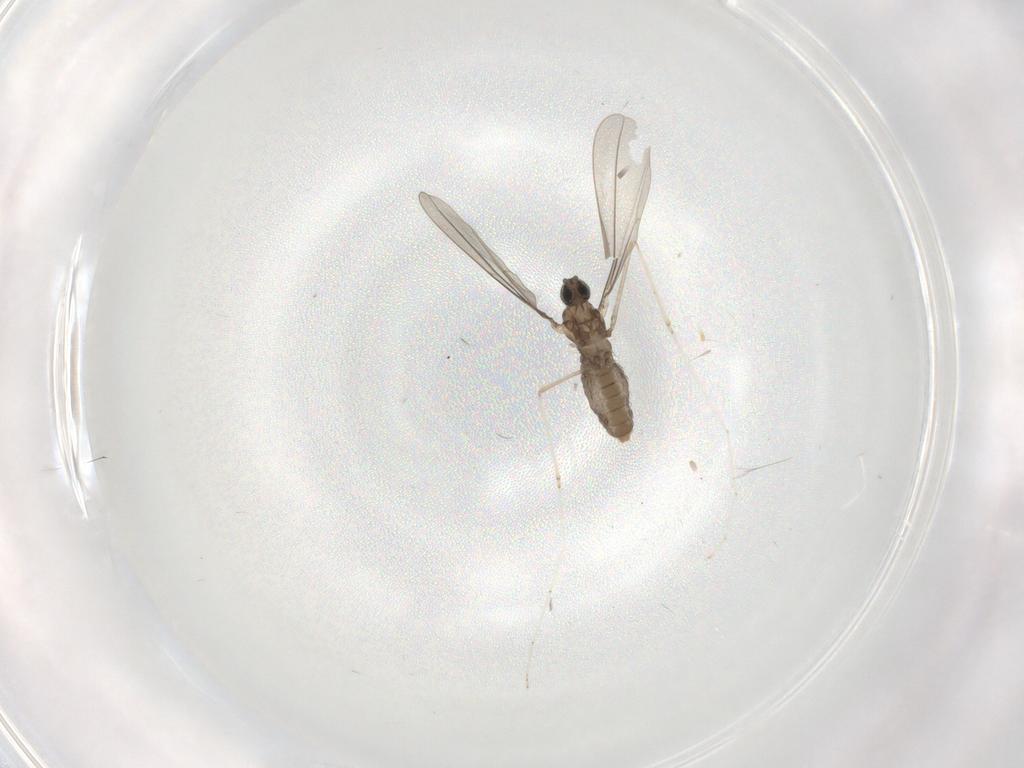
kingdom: Animalia
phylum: Arthropoda
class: Insecta
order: Diptera
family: Cecidomyiidae
